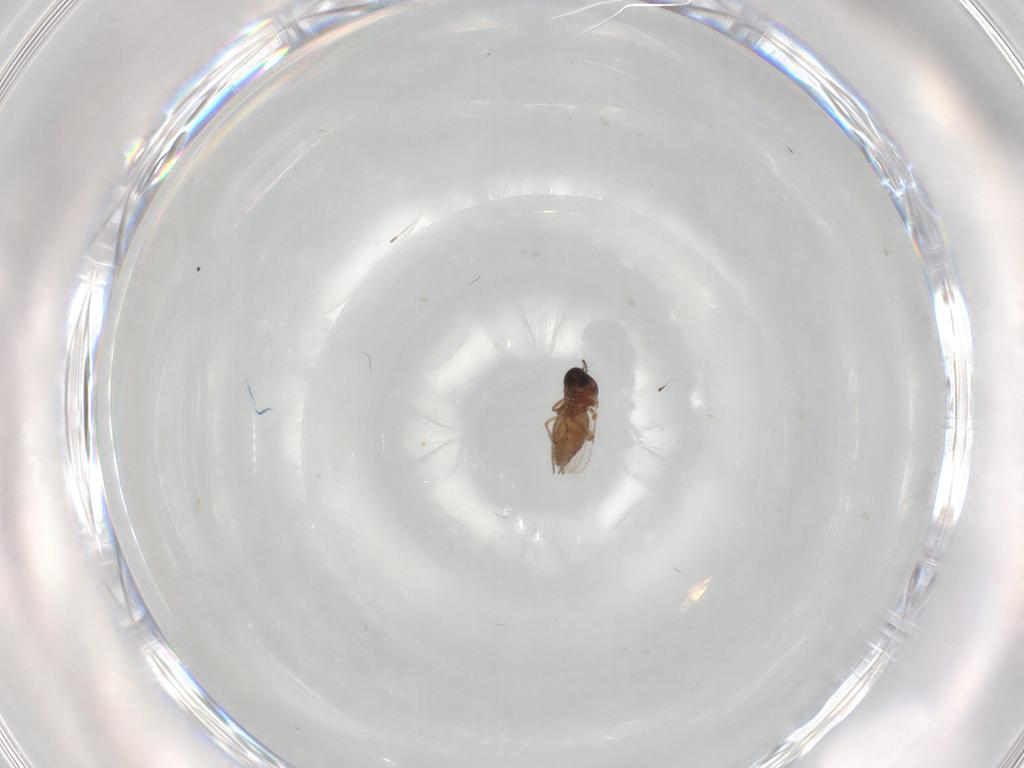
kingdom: Animalia
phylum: Arthropoda
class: Insecta
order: Diptera
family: Ceratopogonidae
